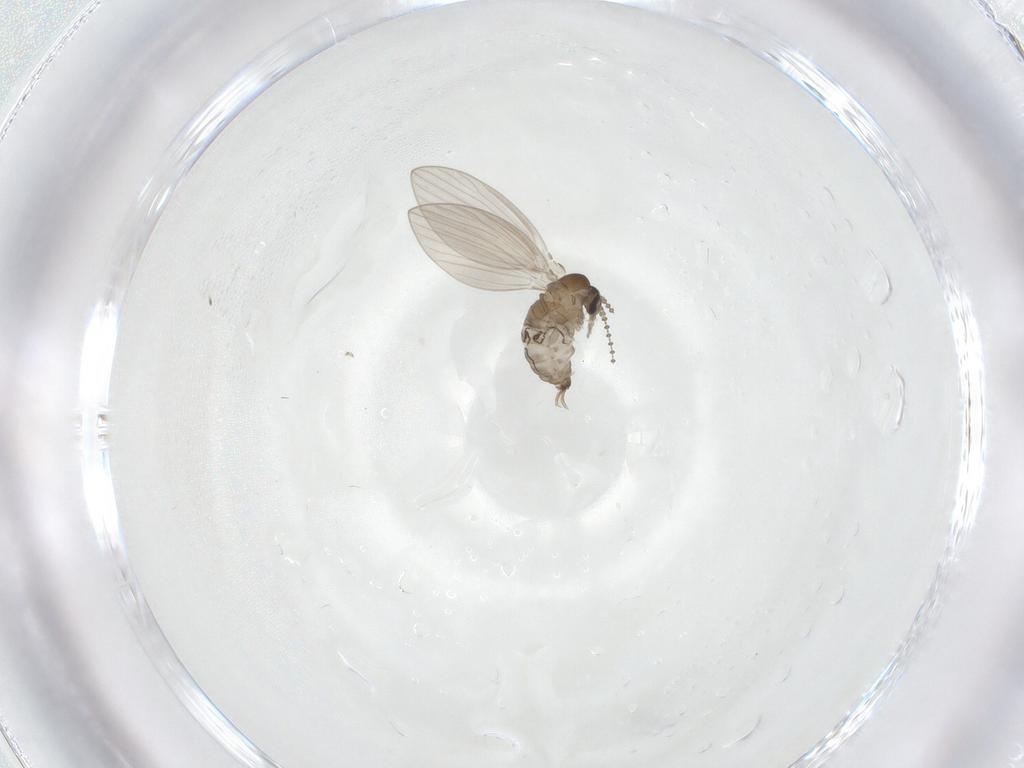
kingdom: Animalia
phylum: Arthropoda
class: Insecta
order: Diptera
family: Psychodidae
